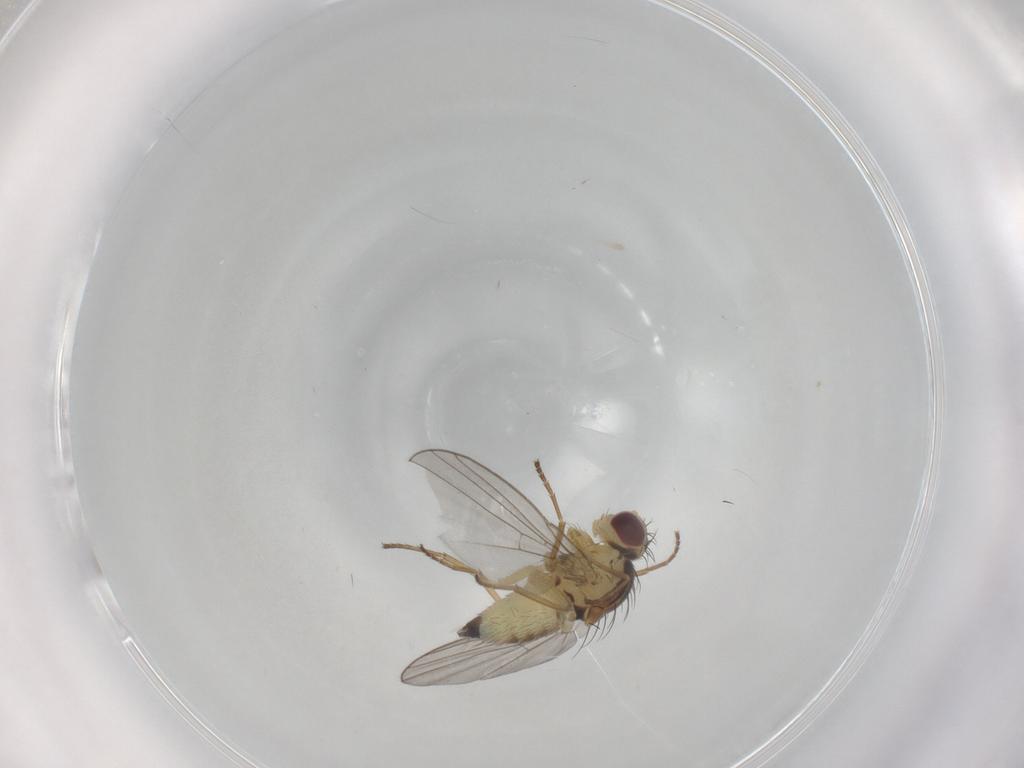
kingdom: Animalia
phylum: Arthropoda
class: Insecta
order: Diptera
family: Agromyzidae
